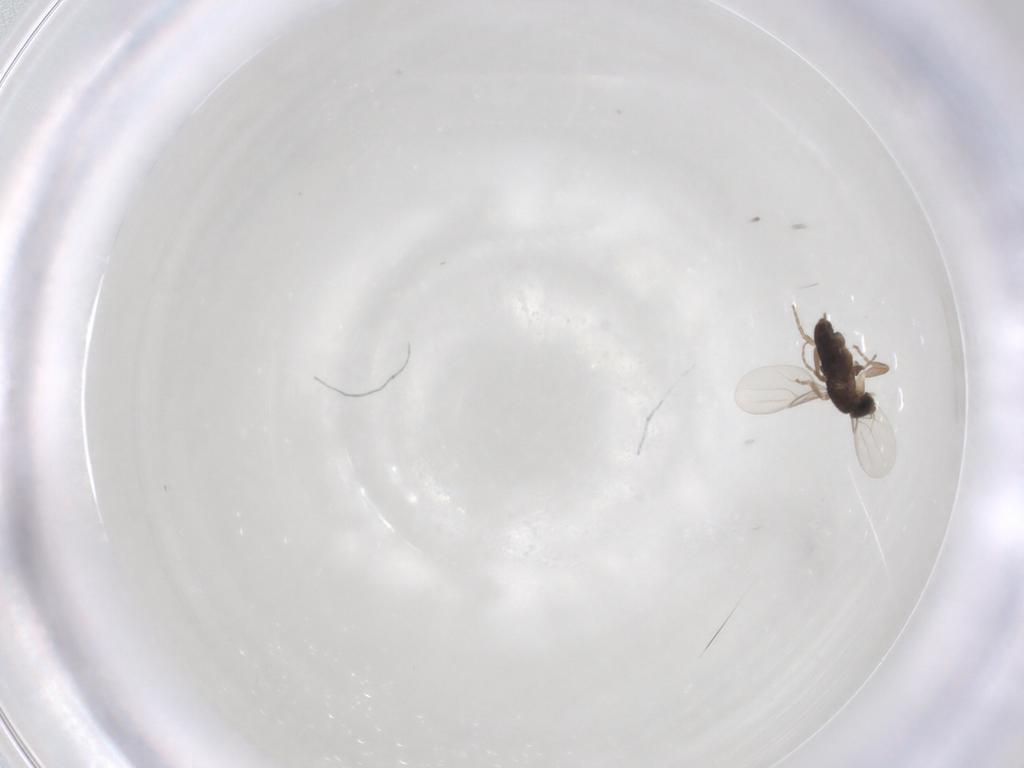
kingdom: Animalia
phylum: Arthropoda
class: Insecta
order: Diptera
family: Phoridae
